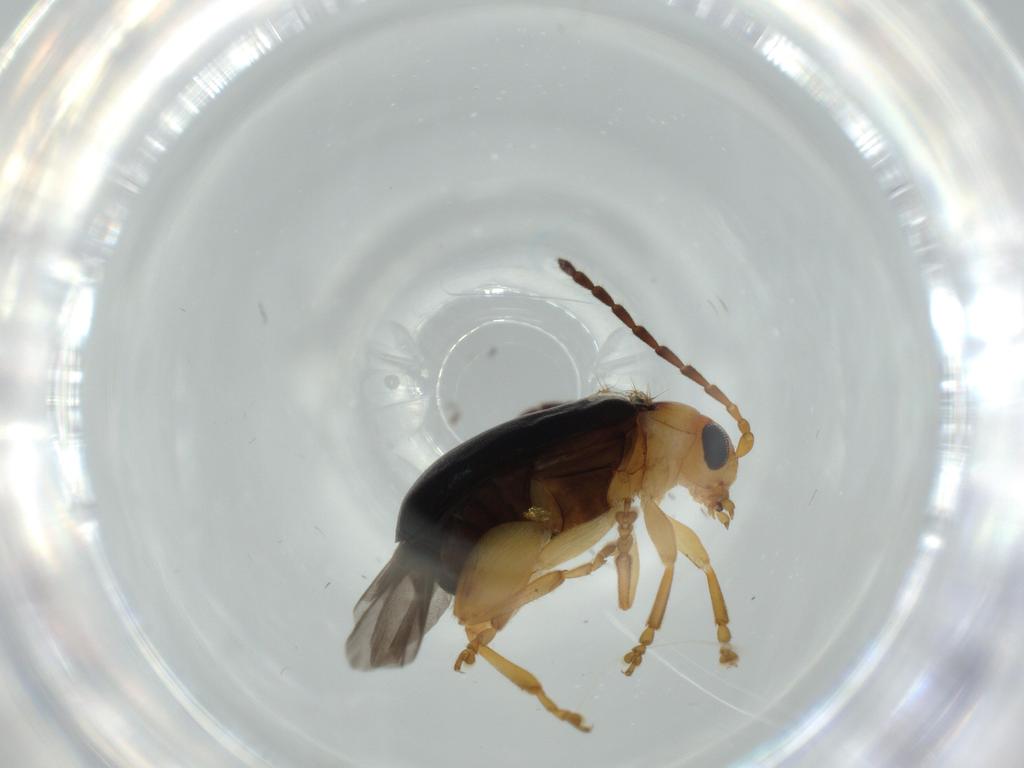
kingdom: Animalia
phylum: Arthropoda
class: Insecta
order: Coleoptera
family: Chrysomelidae
